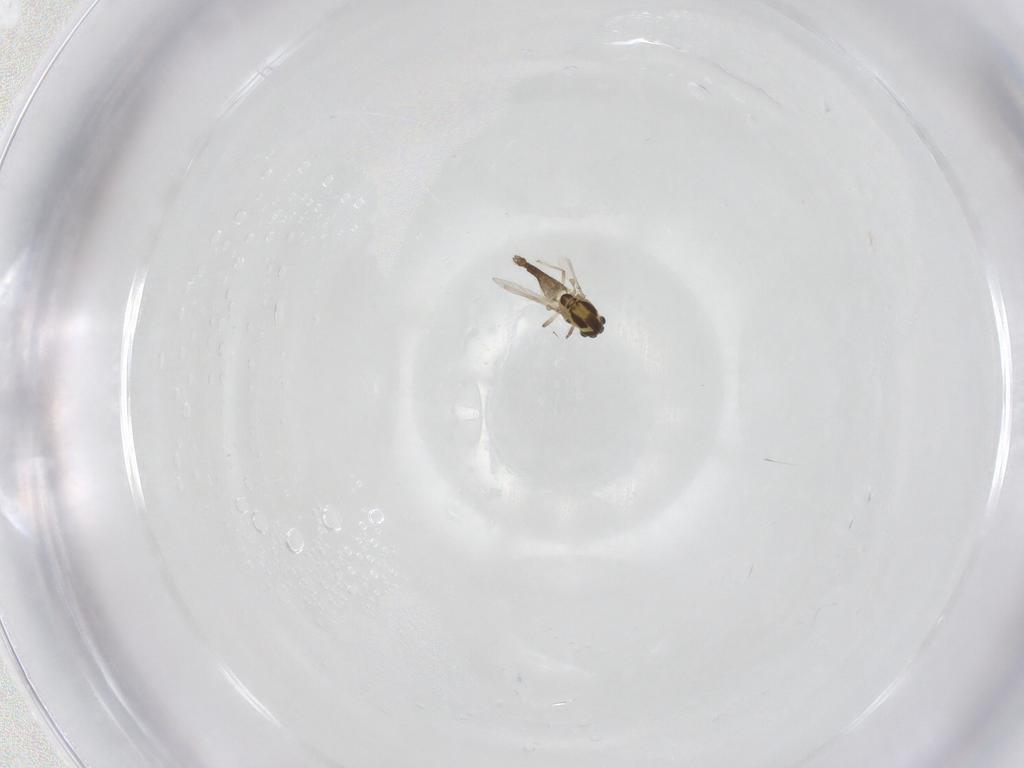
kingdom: Animalia
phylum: Arthropoda
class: Insecta
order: Diptera
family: Chironomidae
